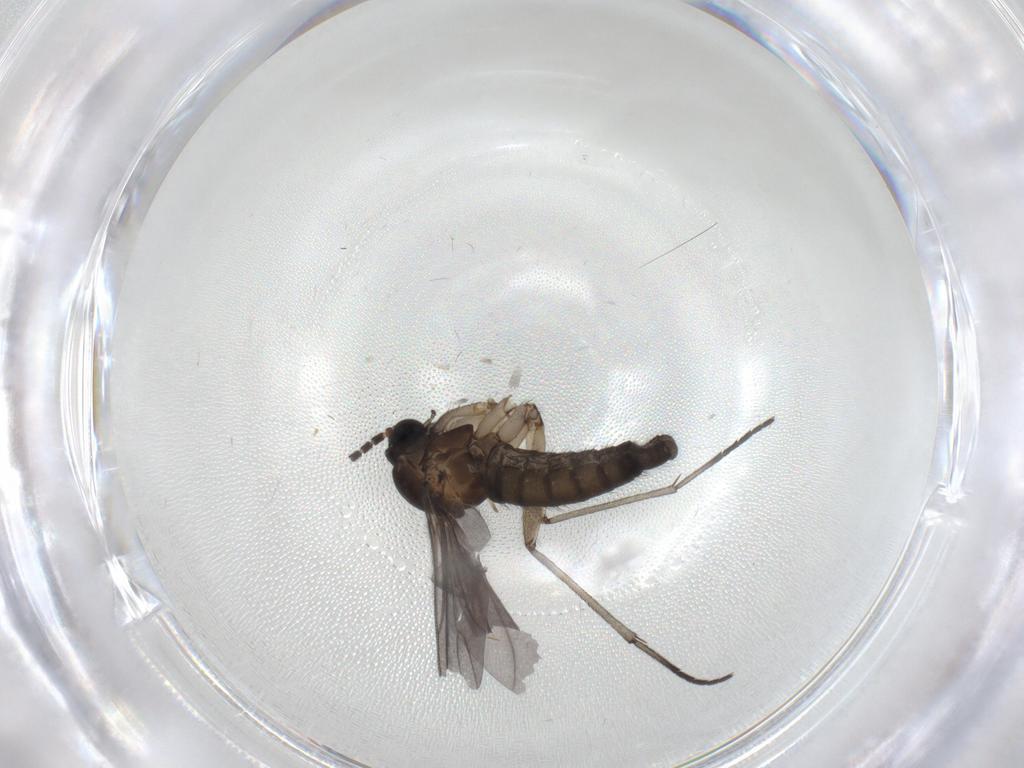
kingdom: Animalia
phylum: Arthropoda
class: Insecta
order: Diptera
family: Sciaridae
